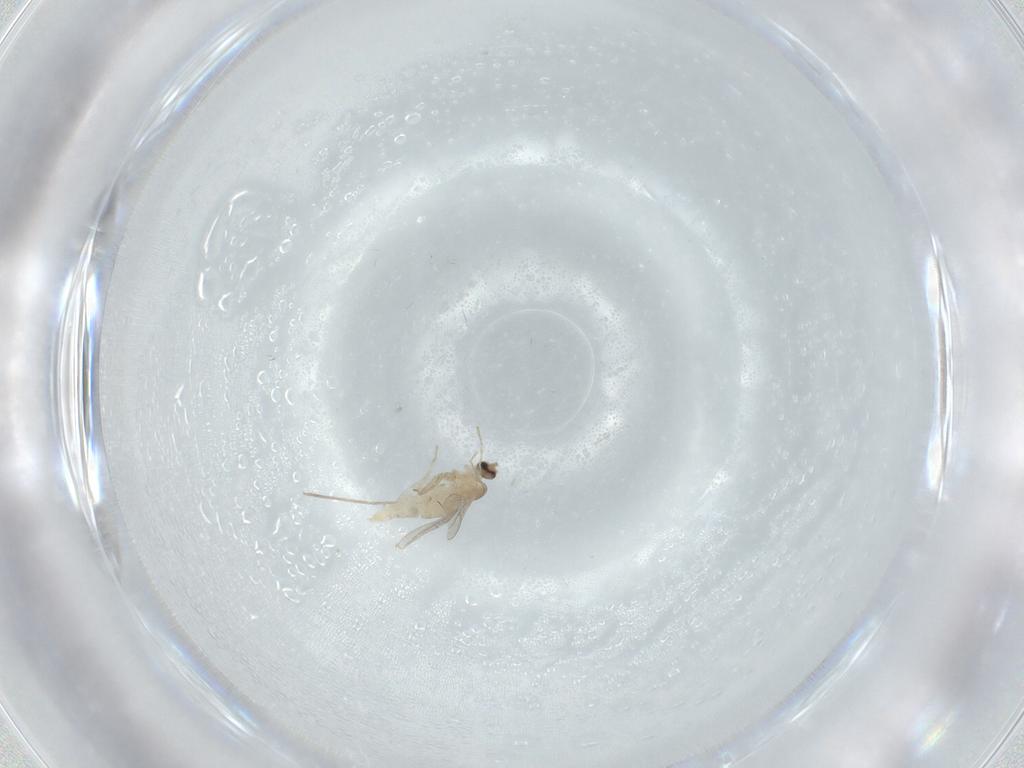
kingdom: Animalia
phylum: Arthropoda
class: Insecta
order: Diptera
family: Cecidomyiidae
